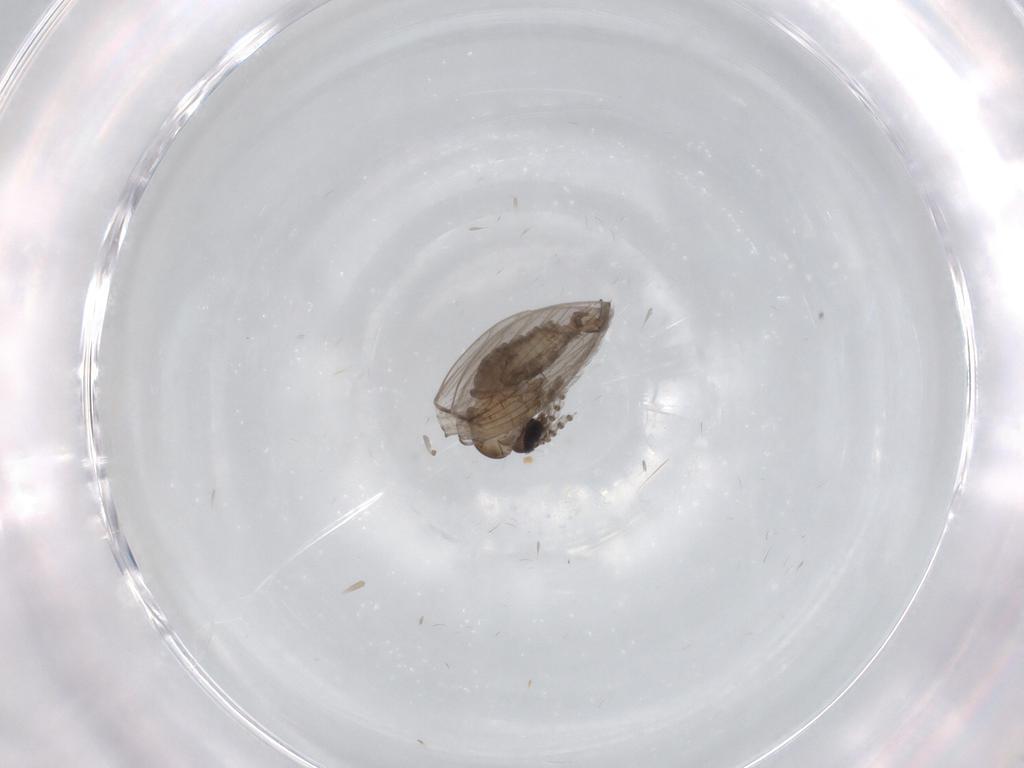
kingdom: Animalia
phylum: Arthropoda
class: Insecta
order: Diptera
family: Psychodidae
